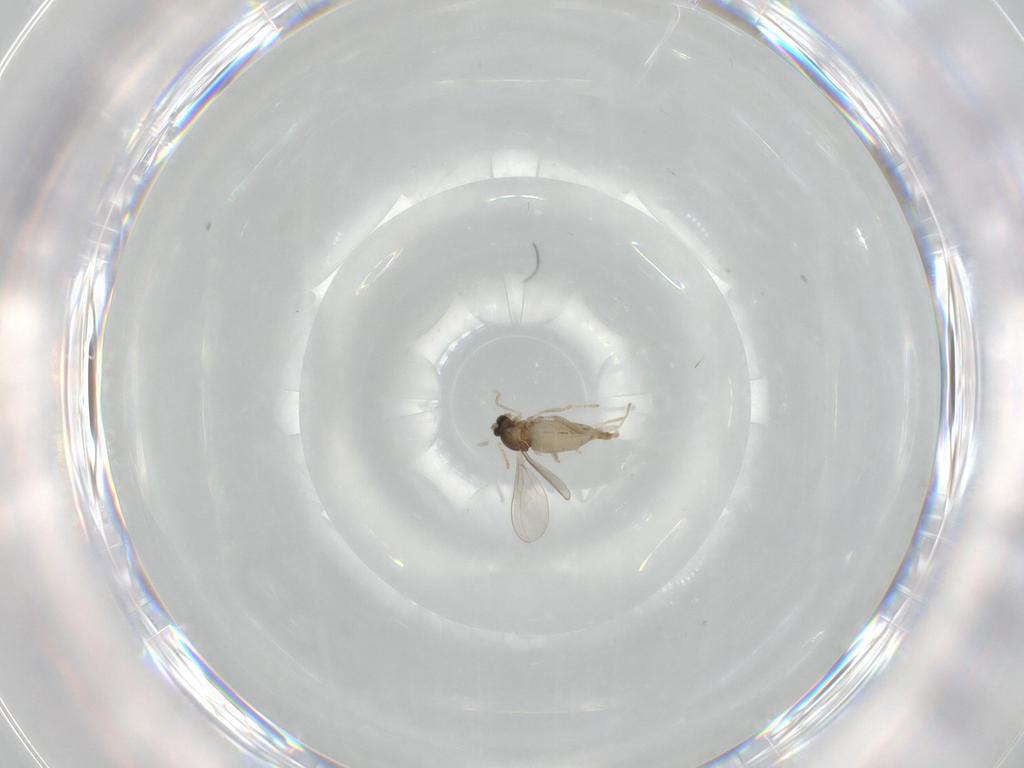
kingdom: Animalia
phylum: Arthropoda
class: Insecta
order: Diptera
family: Cecidomyiidae
